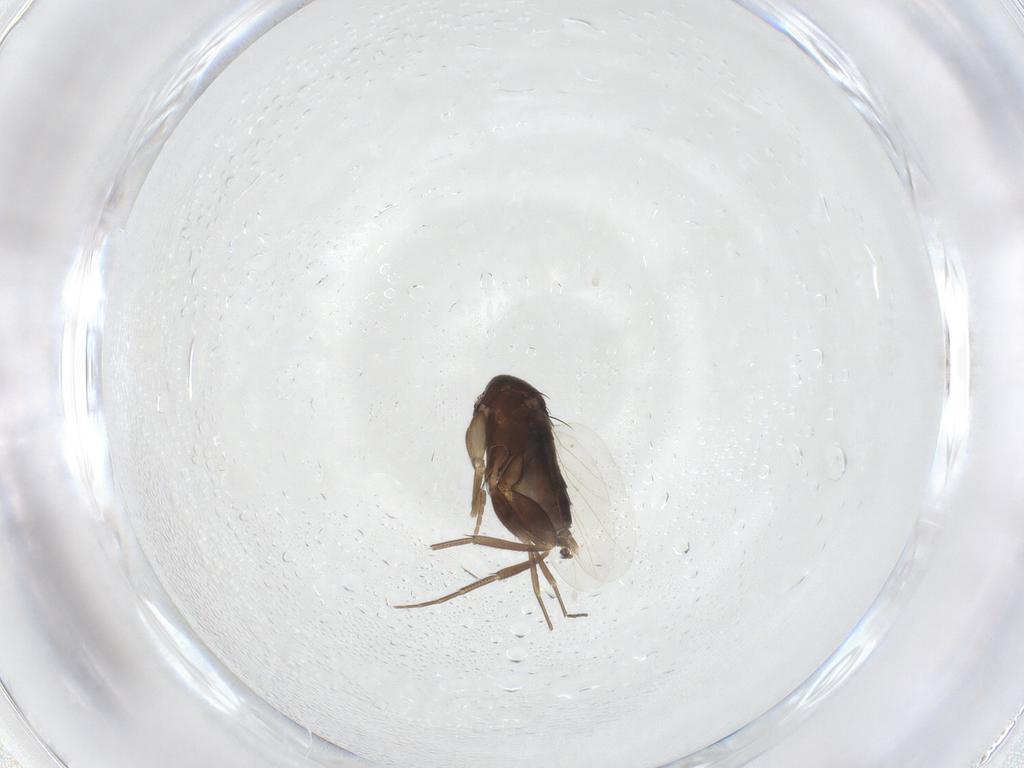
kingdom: Animalia
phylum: Arthropoda
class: Insecta
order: Diptera
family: Phoridae
